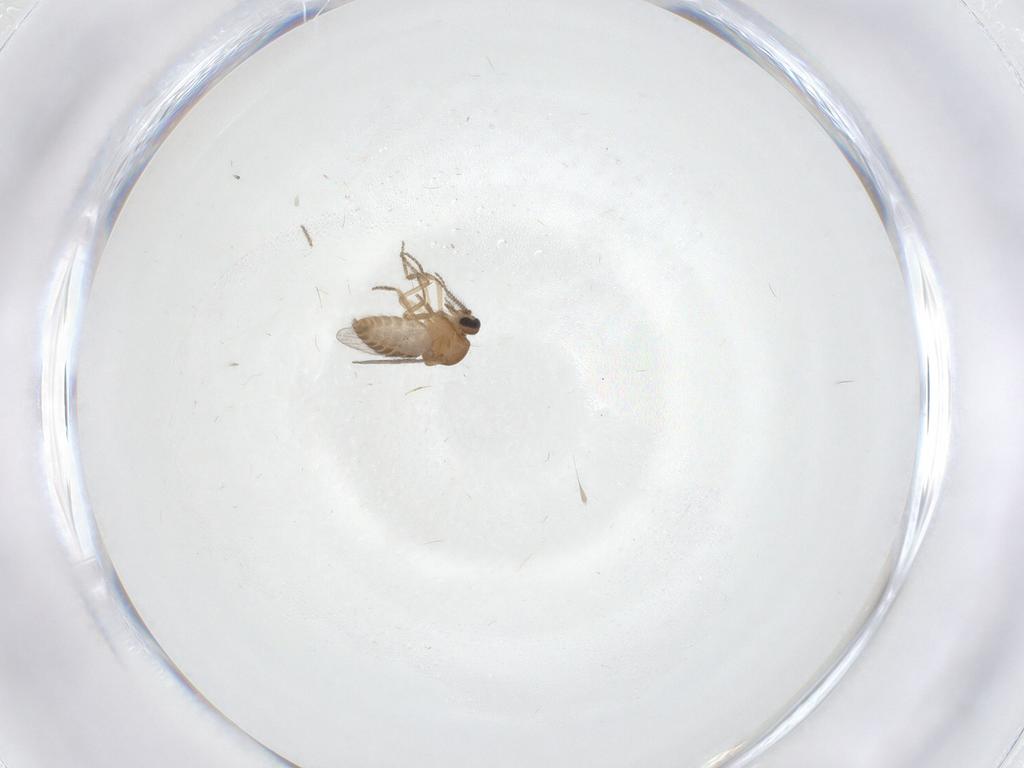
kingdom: Animalia
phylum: Arthropoda
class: Insecta
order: Diptera
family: Ceratopogonidae
